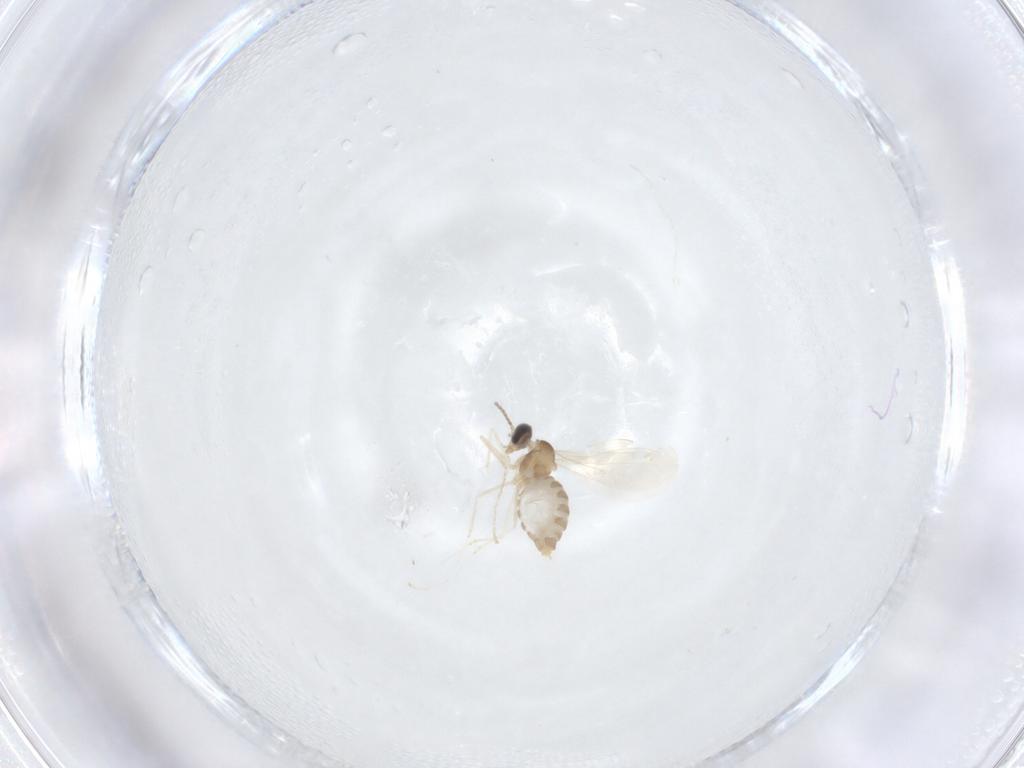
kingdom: Animalia
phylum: Arthropoda
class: Insecta
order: Diptera
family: Cecidomyiidae
